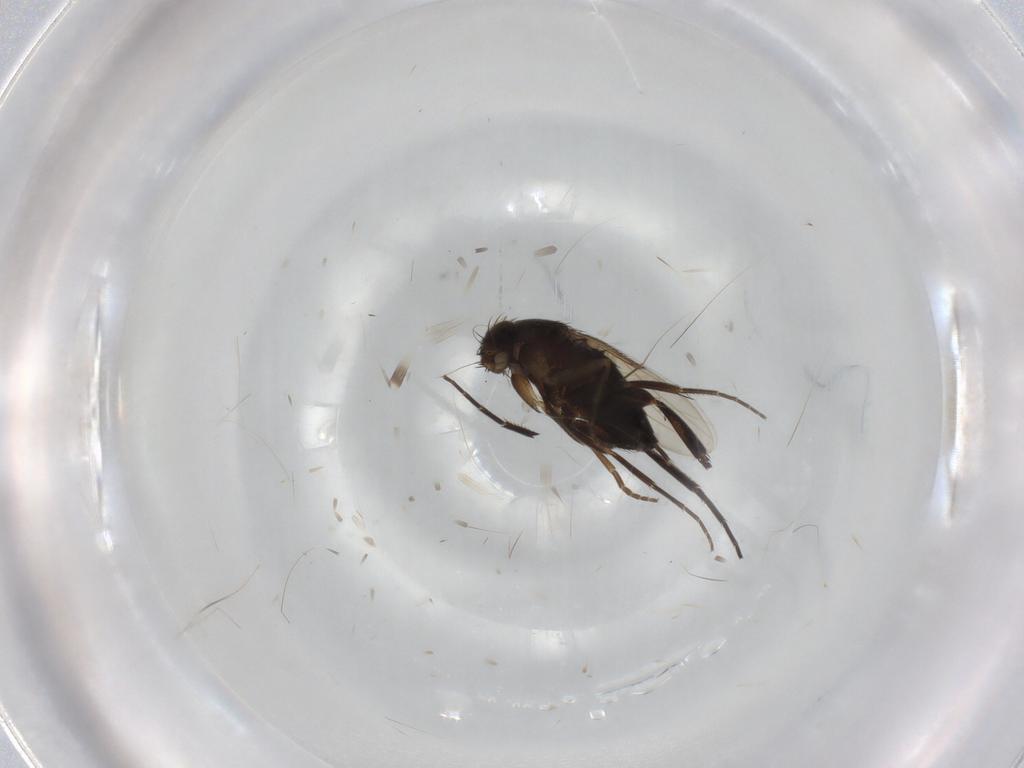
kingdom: Animalia
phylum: Arthropoda
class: Insecta
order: Diptera
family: Phoridae
